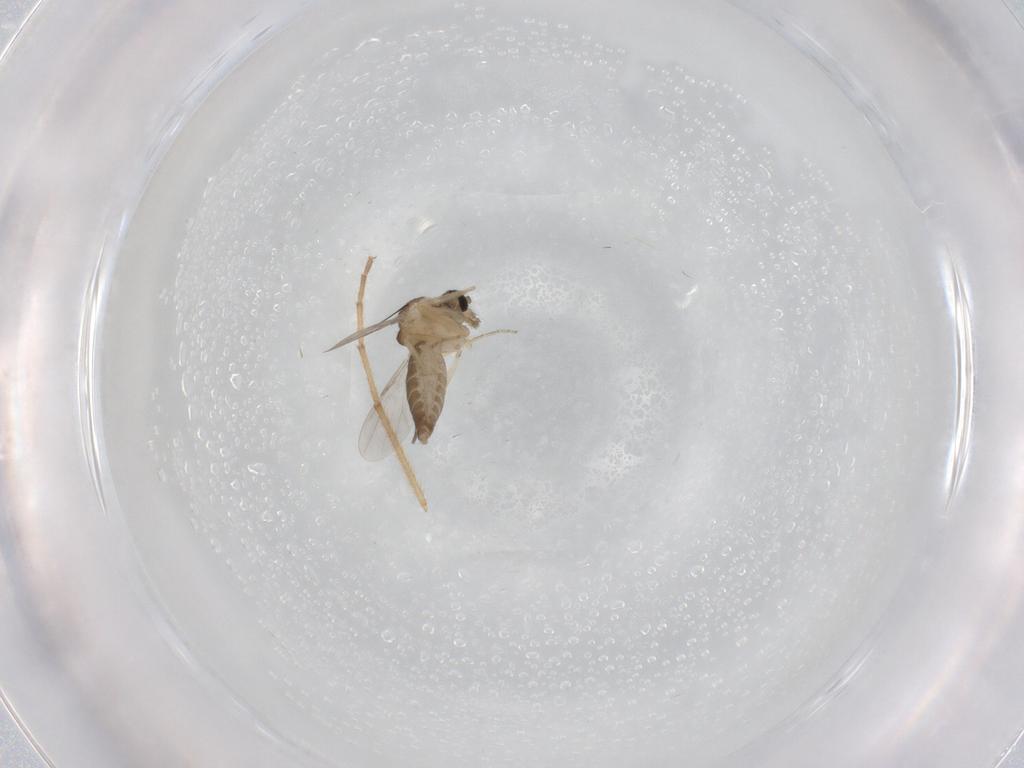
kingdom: Animalia
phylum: Arthropoda
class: Insecta
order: Diptera
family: Ceratopogonidae
